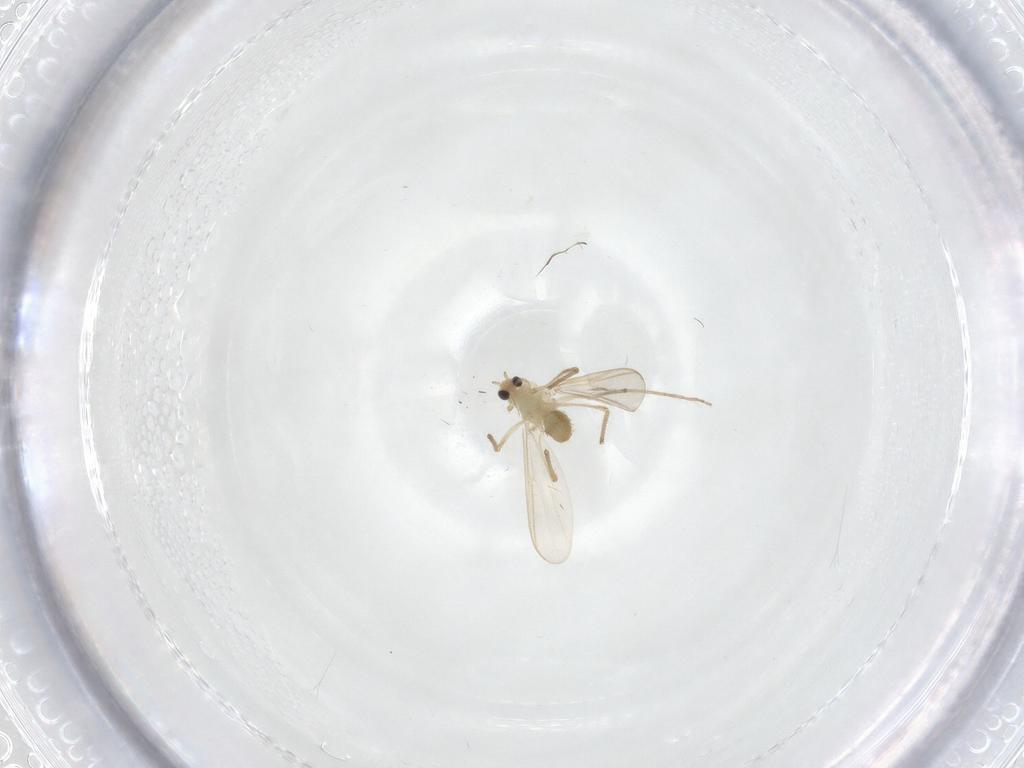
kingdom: Animalia
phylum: Arthropoda
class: Insecta
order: Diptera
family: Chironomidae
